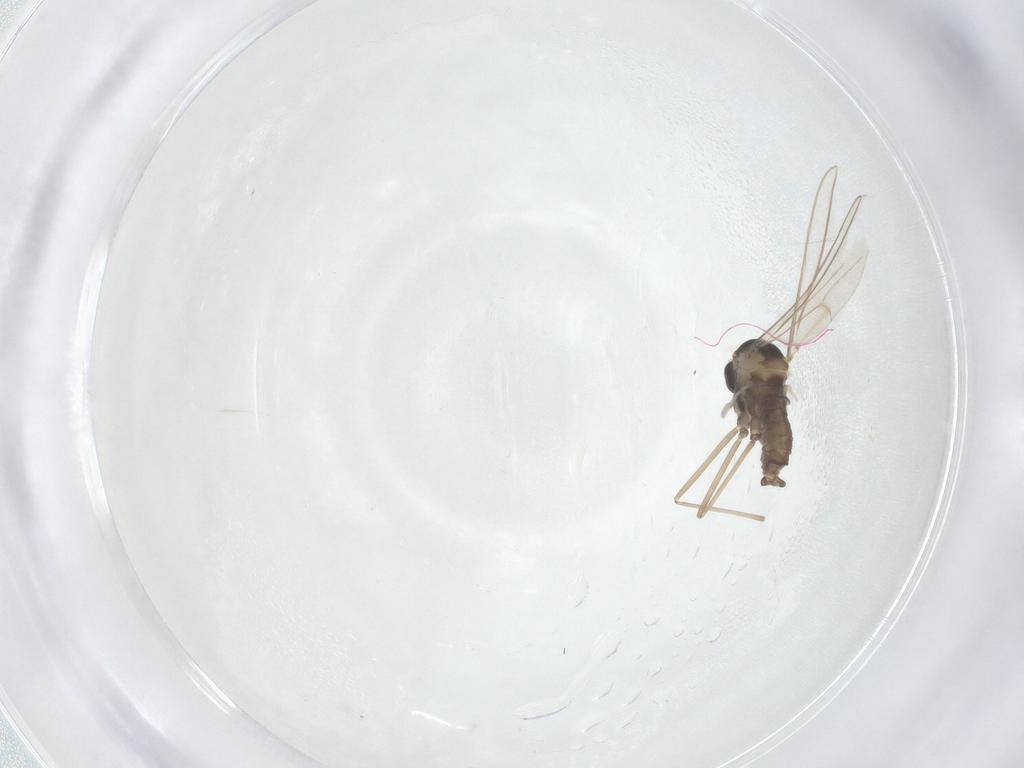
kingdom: Animalia
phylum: Arthropoda
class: Insecta
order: Diptera
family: Cecidomyiidae
